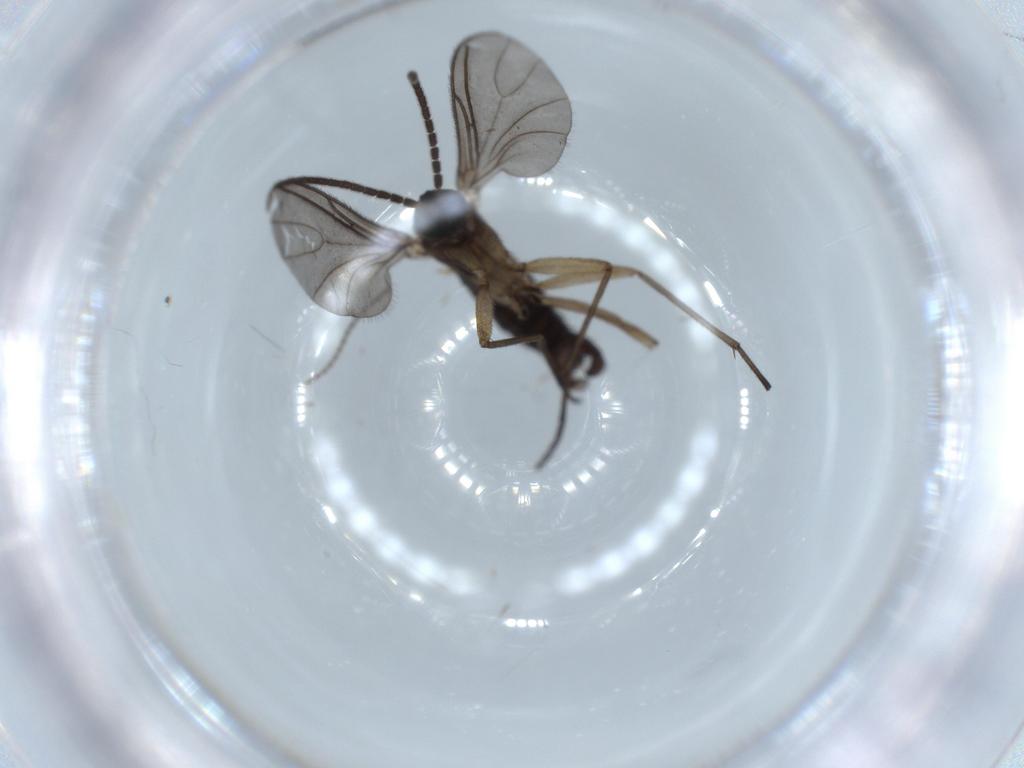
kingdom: Animalia
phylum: Arthropoda
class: Insecta
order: Diptera
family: Sciaridae
